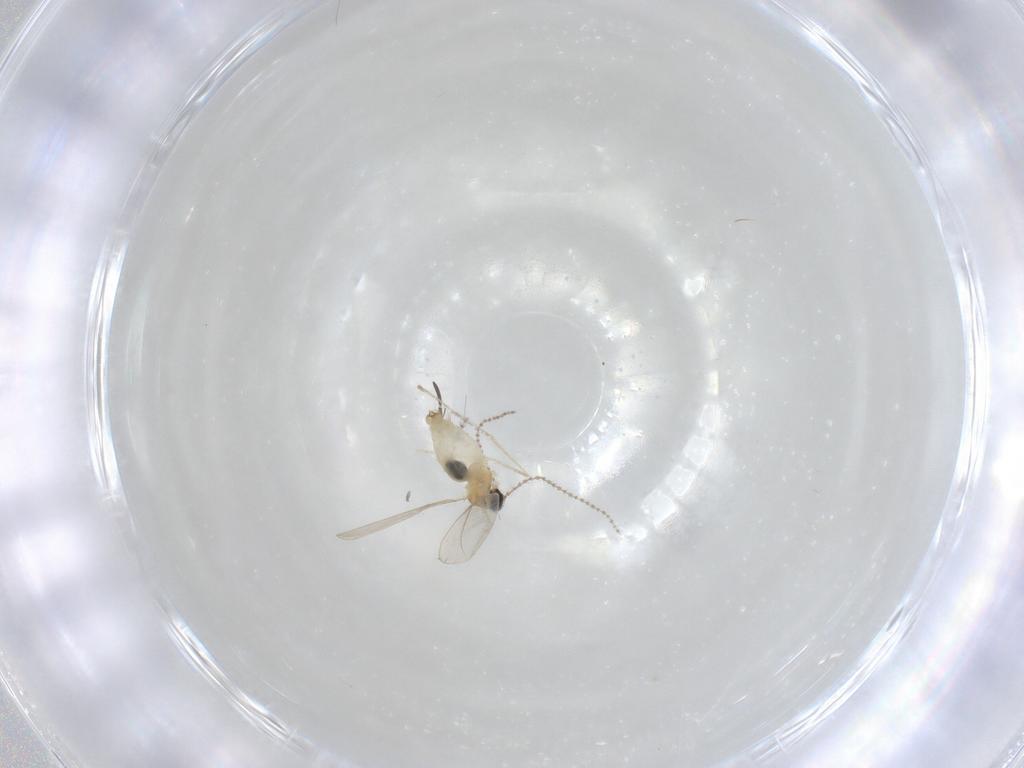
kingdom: Animalia
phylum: Arthropoda
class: Insecta
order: Diptera
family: Cecidomyiidae
